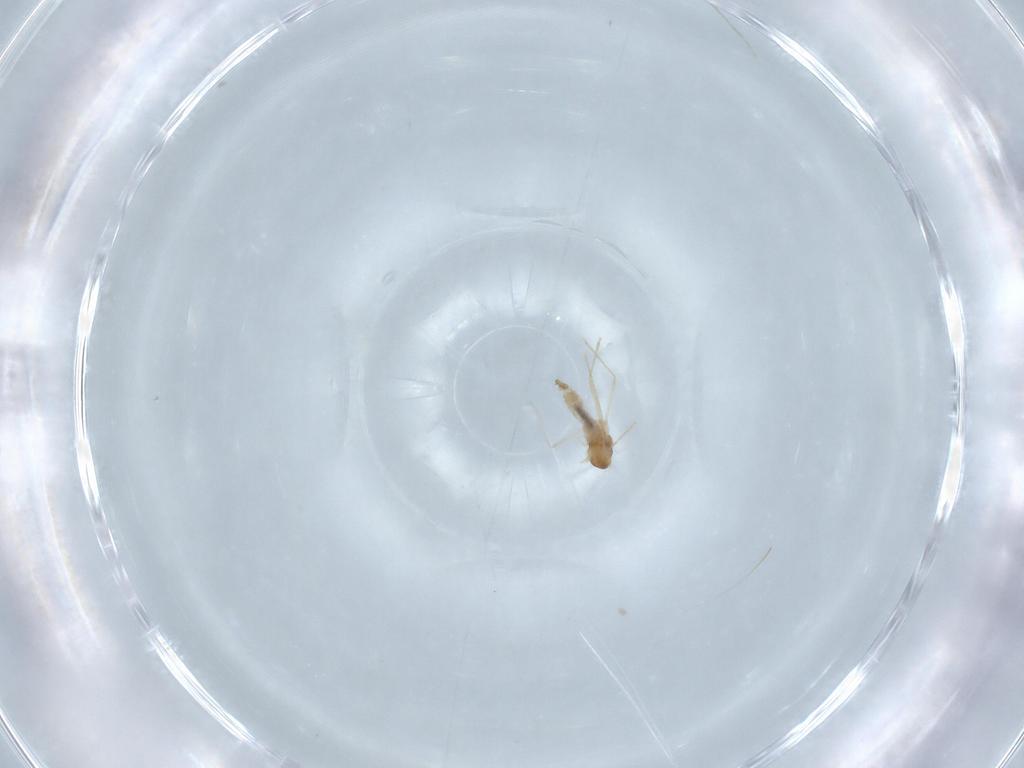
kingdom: Animalia
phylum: Arthropoda
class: Insecta
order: Diptera
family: Cecidomyiidae
